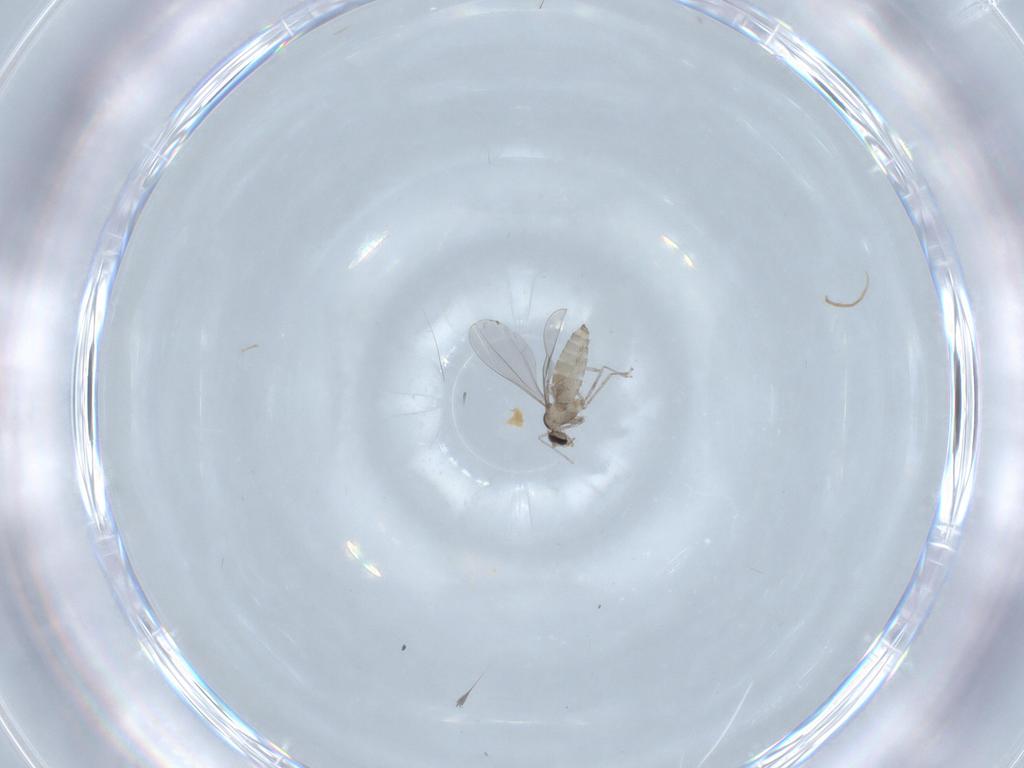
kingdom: Animalia
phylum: Arthropoda
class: Insecta
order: Diptera
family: Cecidomyiidae
